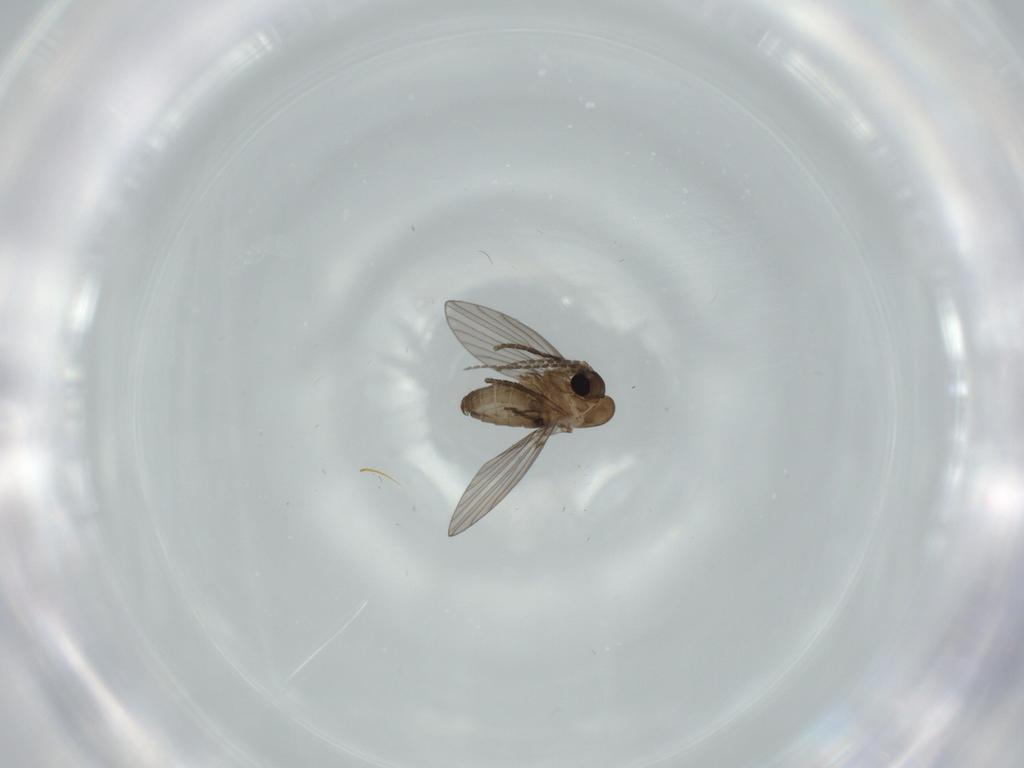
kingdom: Animalia
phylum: Arthropoda
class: Insecta
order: Diptera
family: Psychodidae
